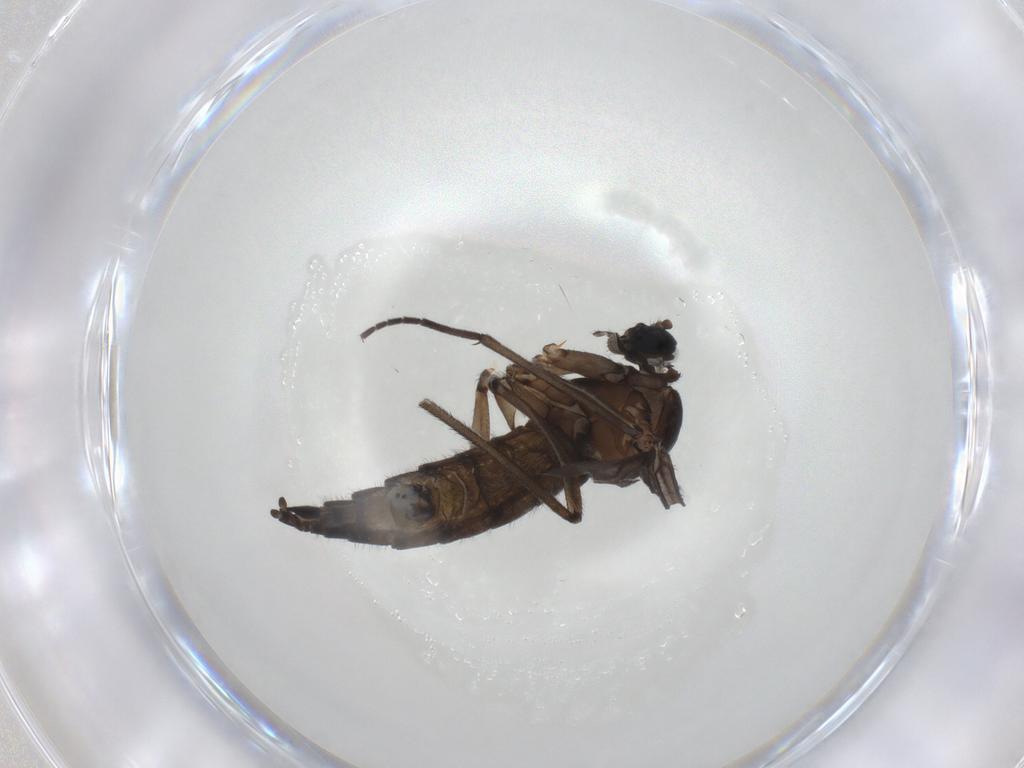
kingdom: Animalia
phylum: Arthropoda
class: Insecta
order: Diptera
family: Sciaridae
